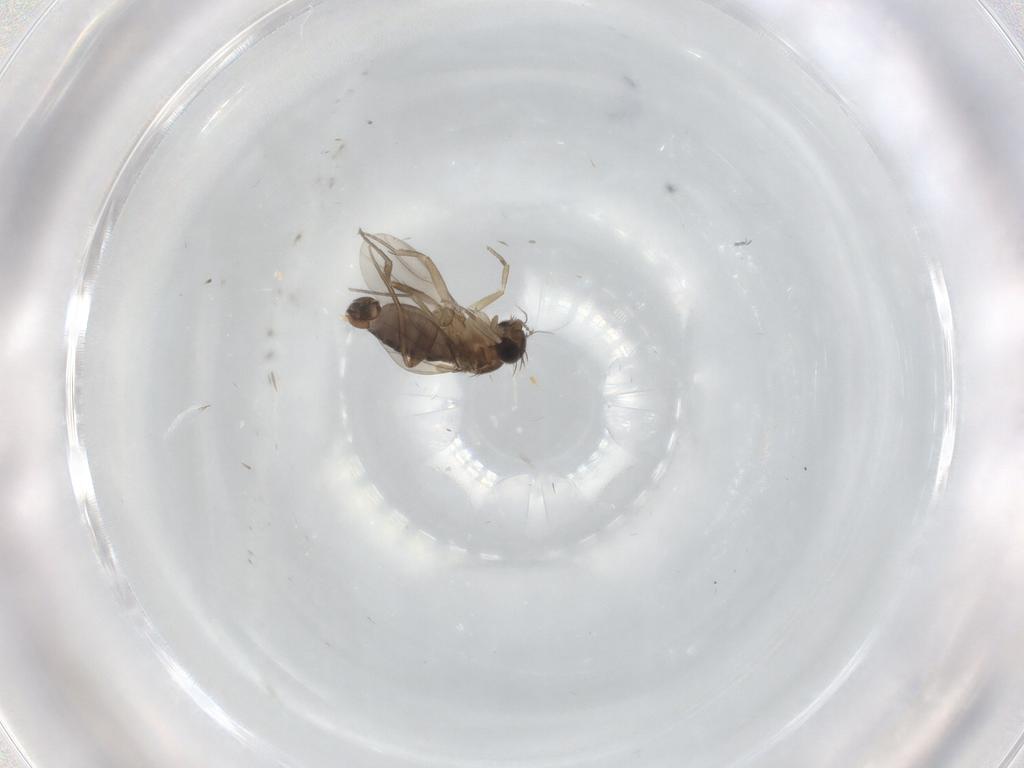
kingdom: Animalia
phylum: Arthropoda
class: Insecta
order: Diptera
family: Phoridae
